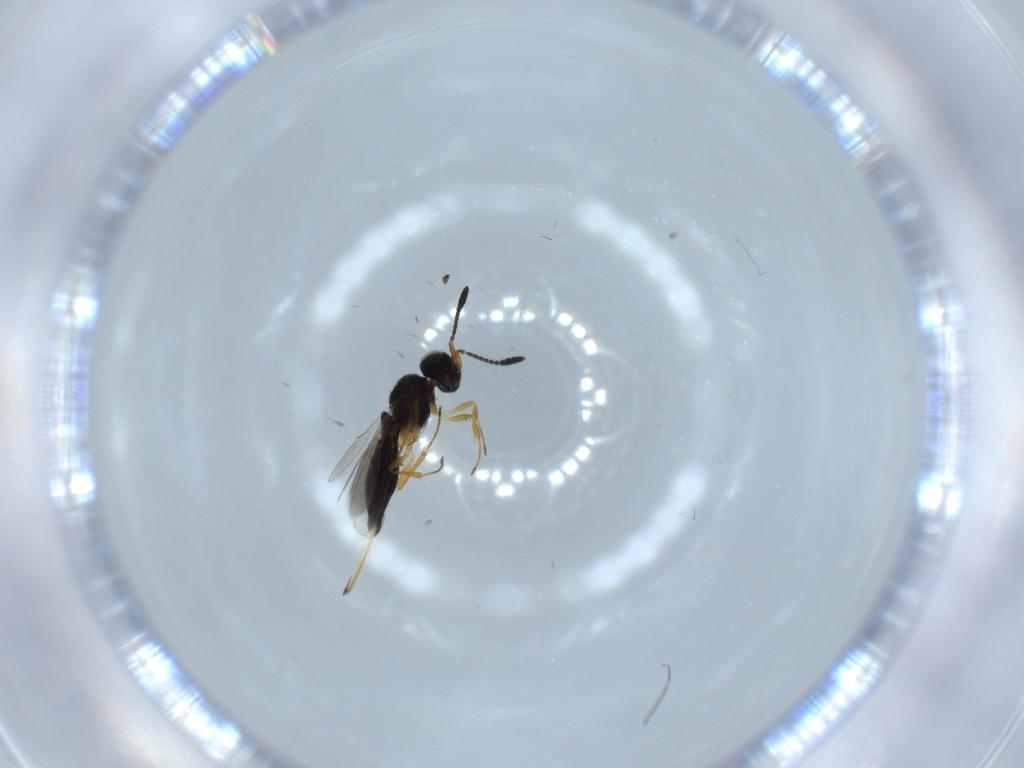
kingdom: Animalia
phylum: Arthropoda
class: Insecta
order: Hymenoptera
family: Scelionidae
